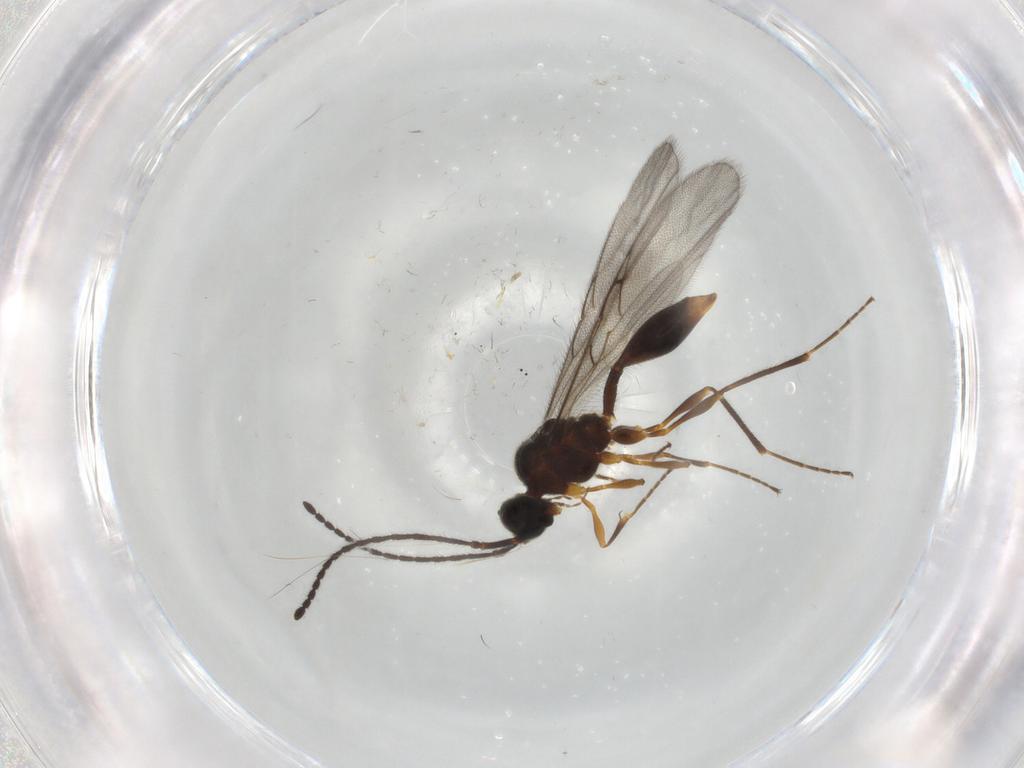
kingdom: Animalia
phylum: Arthropoda
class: Insecta
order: Hymenoptera
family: Diapriidae
